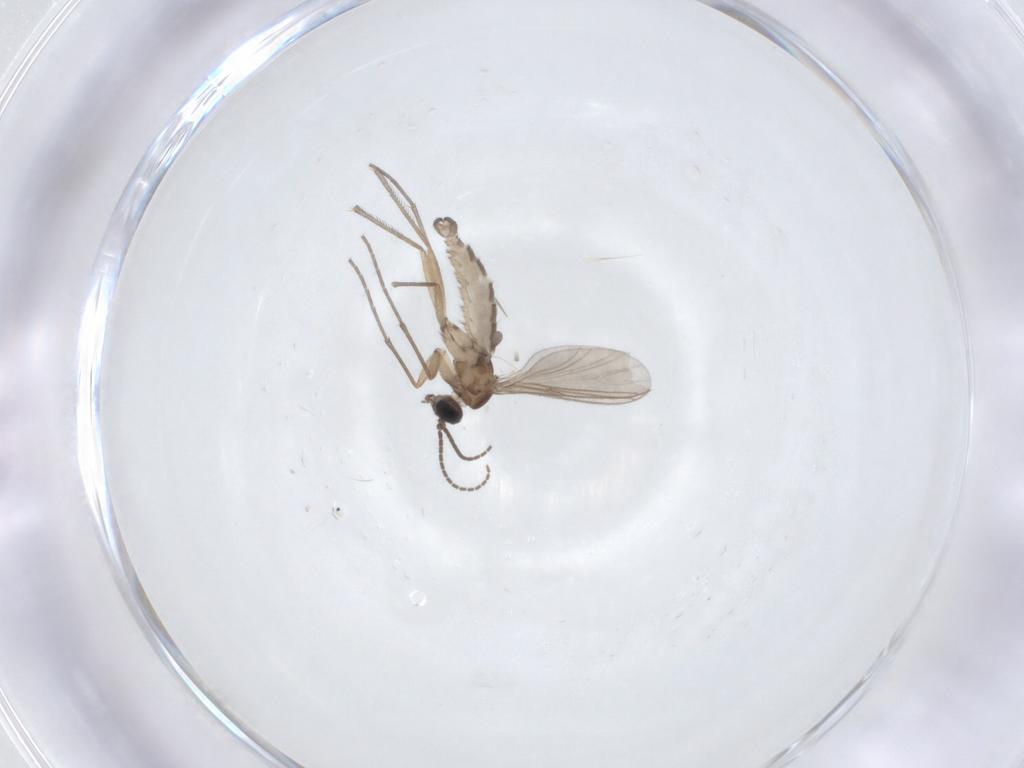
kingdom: Animalia
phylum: Arthropoda
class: Insecta
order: Diptera
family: Sciaridae
